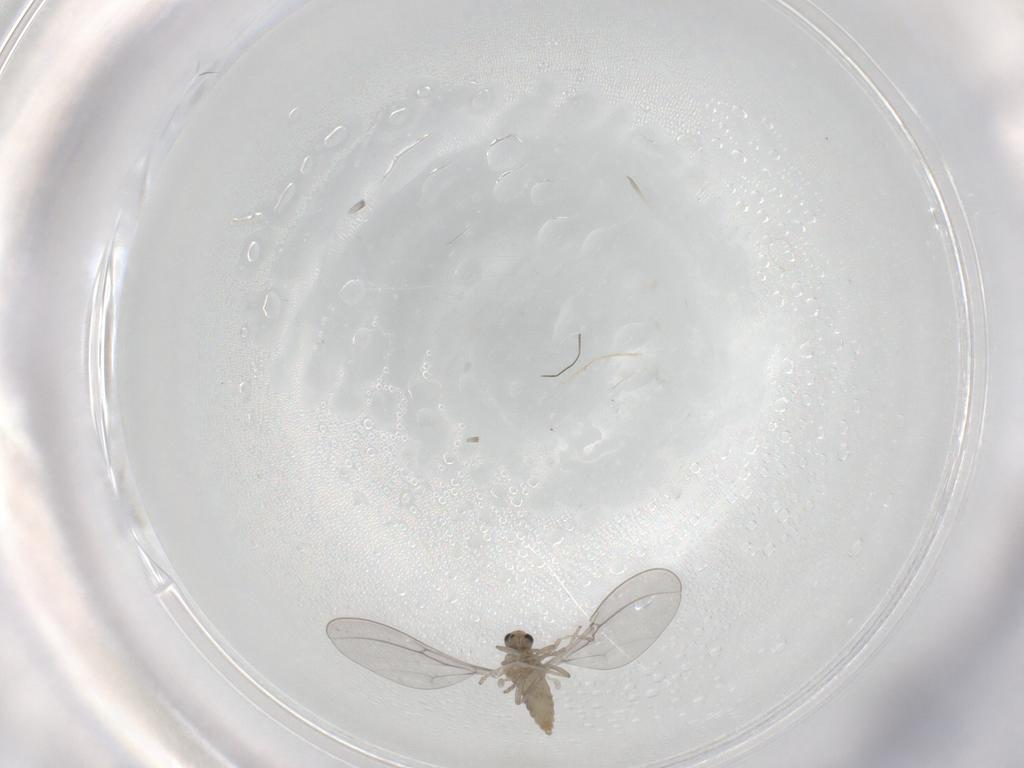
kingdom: Animalia
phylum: Arthropoda
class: Insecta
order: Diptera
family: Cecidomyiidae
